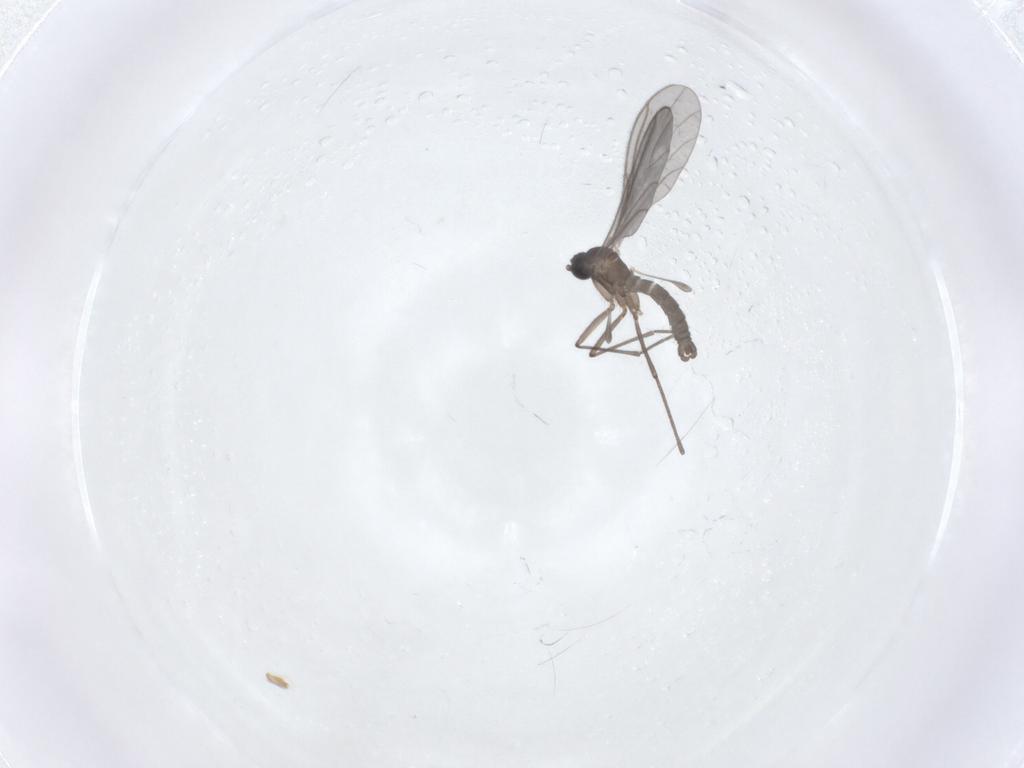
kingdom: Animalia
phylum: Arthropoda
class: Insecta
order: Diptera
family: Sciaridae
